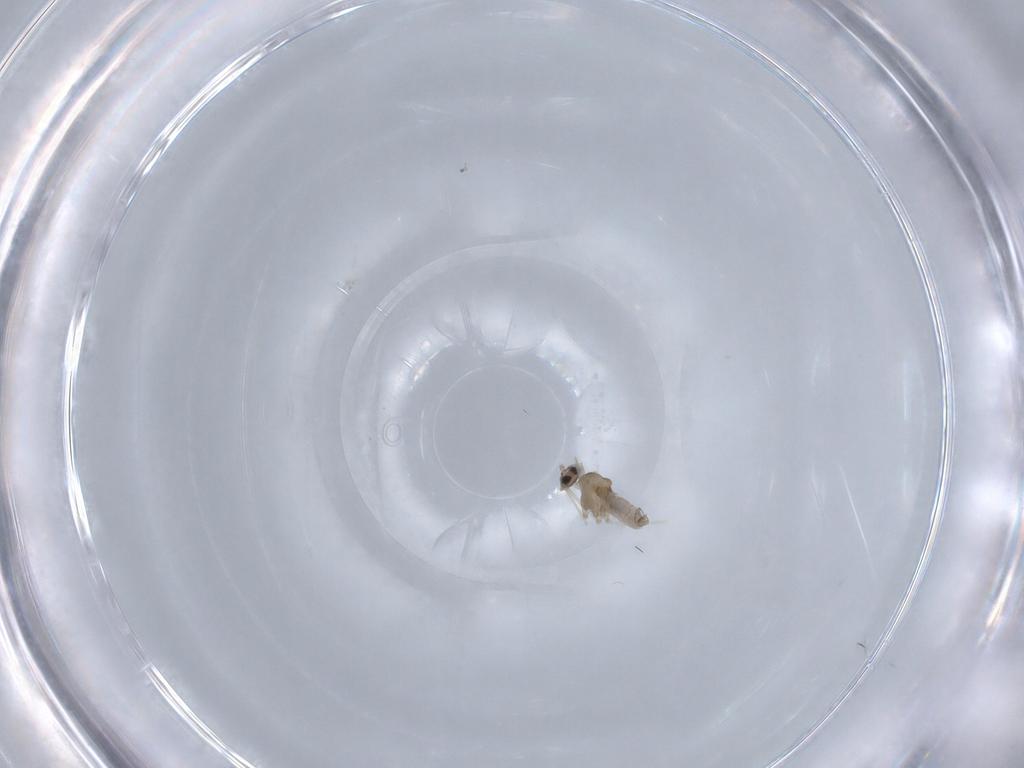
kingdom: Animalia
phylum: Arthropoda
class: Insecta
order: Diptera
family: Cecidomyiidae
